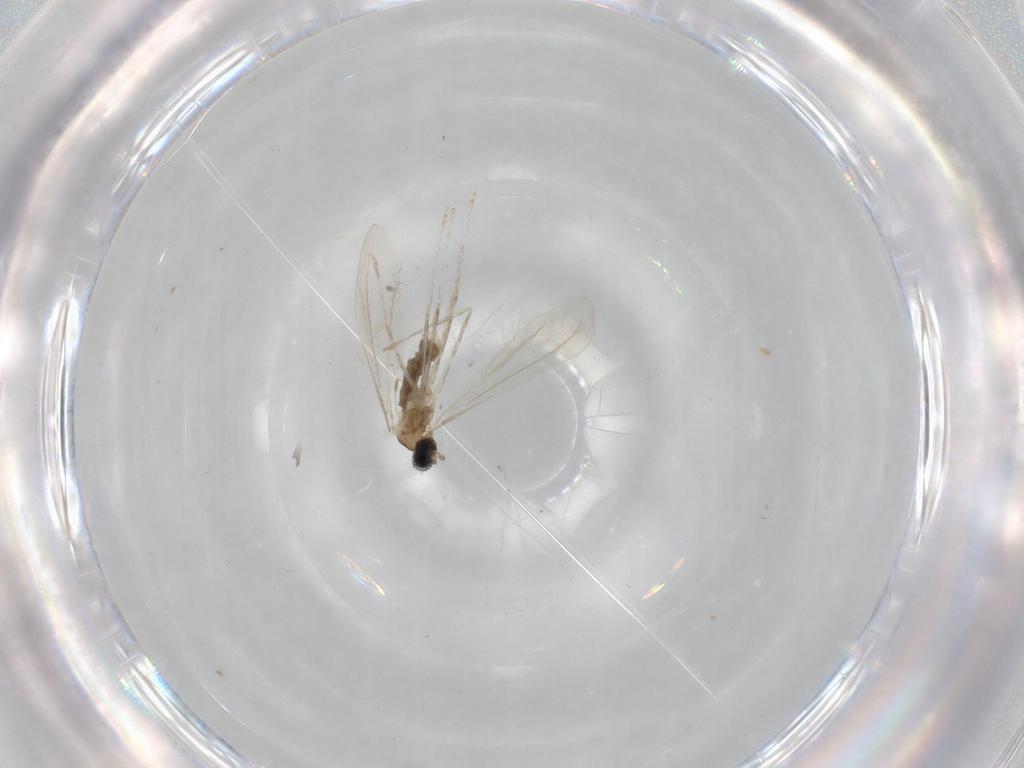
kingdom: Animalia
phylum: Arthropoda
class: Insecta
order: Diptera
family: Cecidomyiidae
